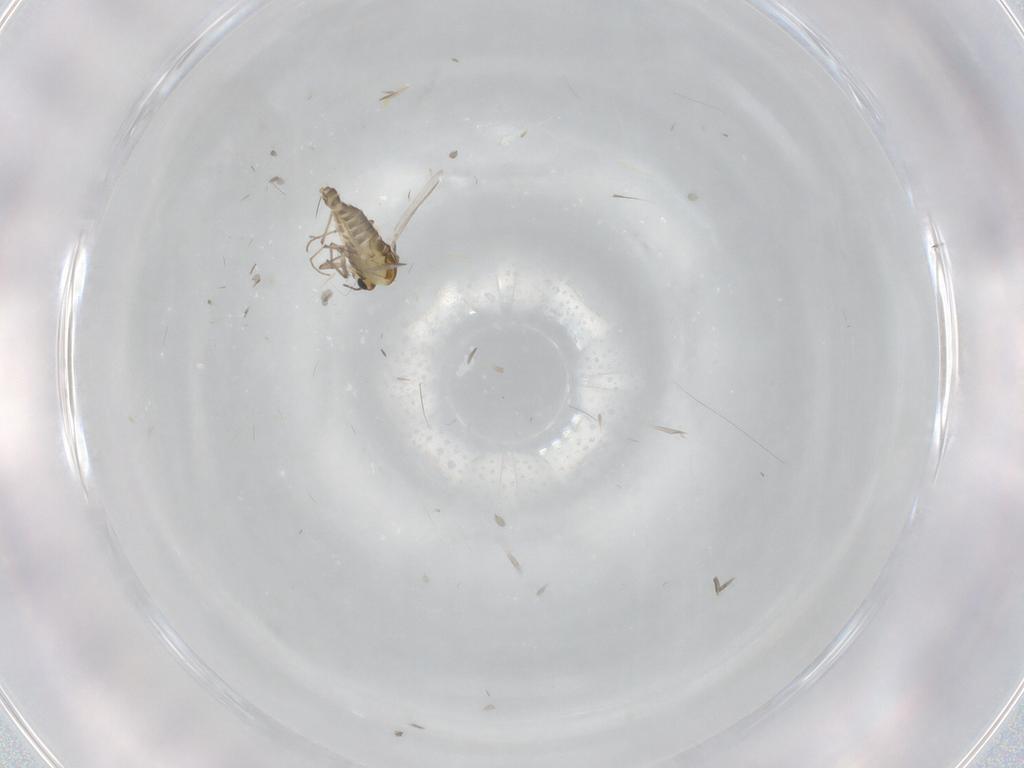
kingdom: Animalia
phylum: Arthropoda
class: Insecta
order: Diptera
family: Chironomidae
